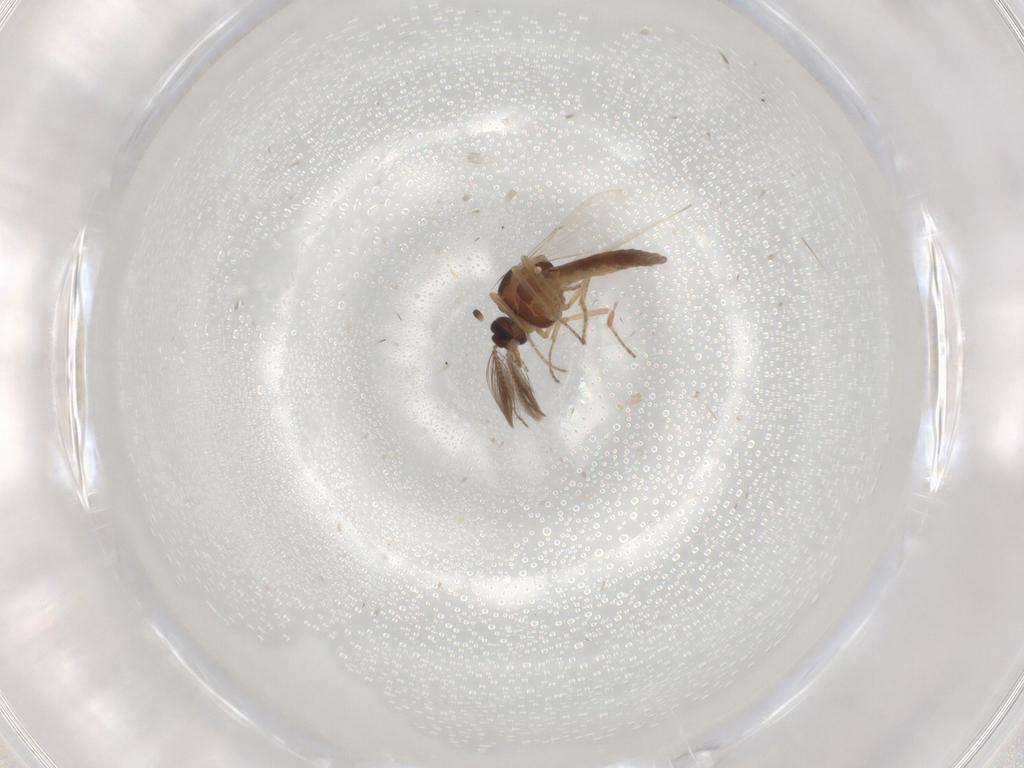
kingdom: Animalia
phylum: Arthropoda
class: Insecta
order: Diptera
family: Ceratopogonidae
